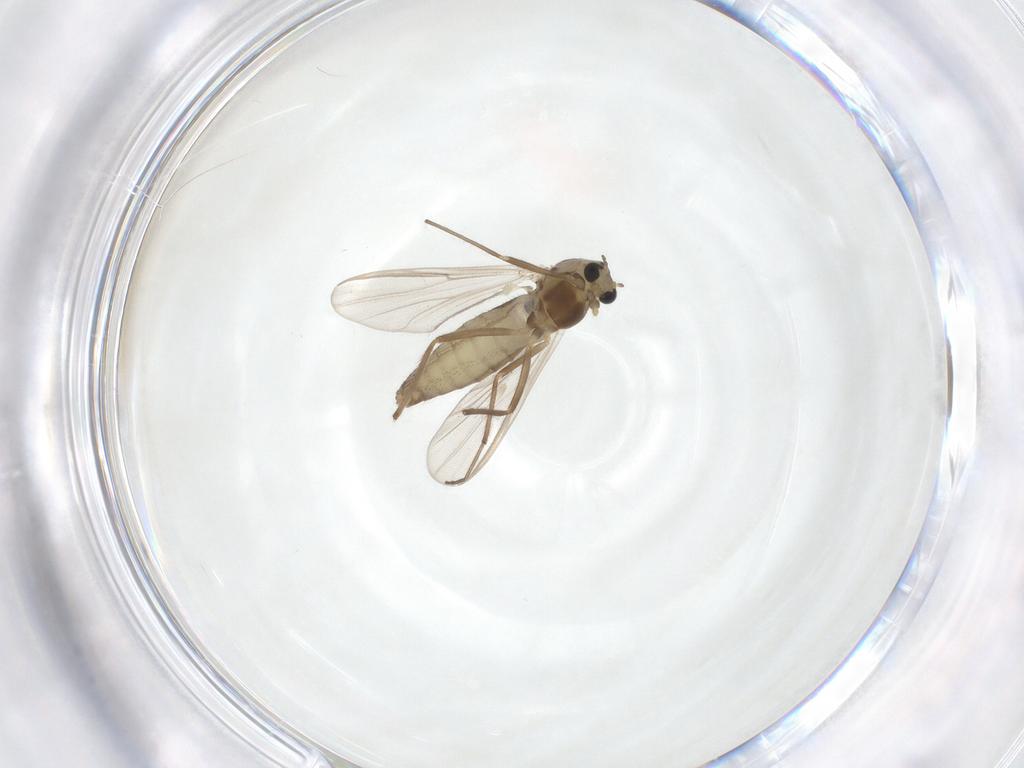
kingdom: Animalia
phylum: Arthropoda
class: Insecta
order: Diptera
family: Chironomidae
